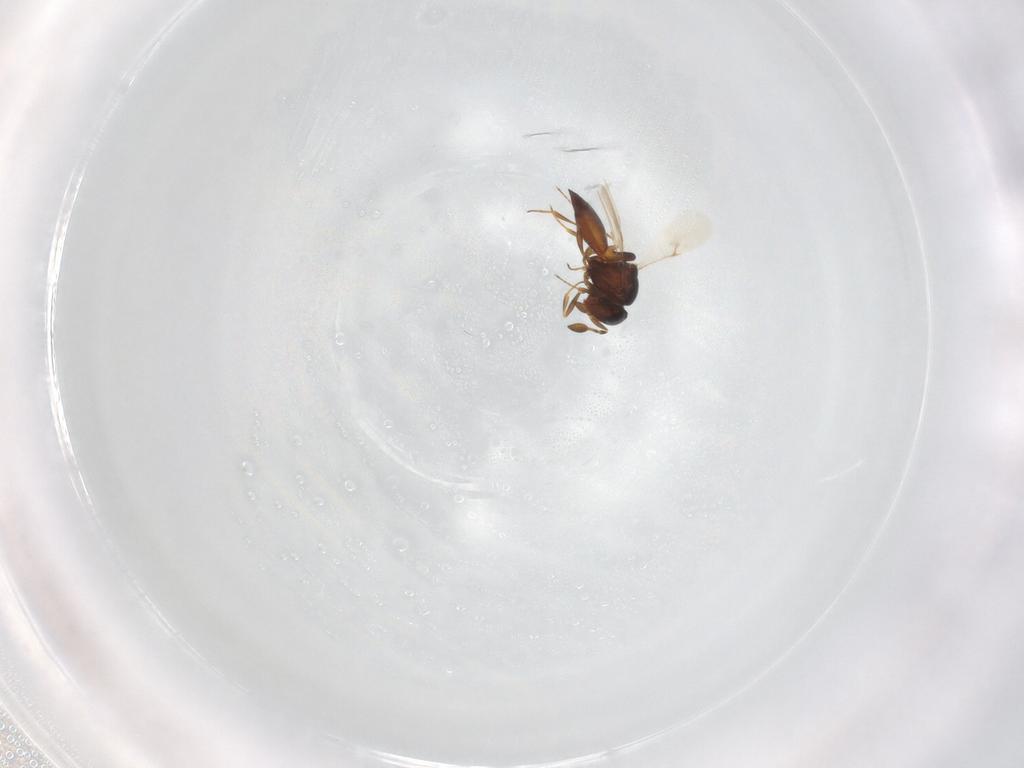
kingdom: Animalia
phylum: Arthropoda
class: Insecta
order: Hymenoptera
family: Scelionidae
